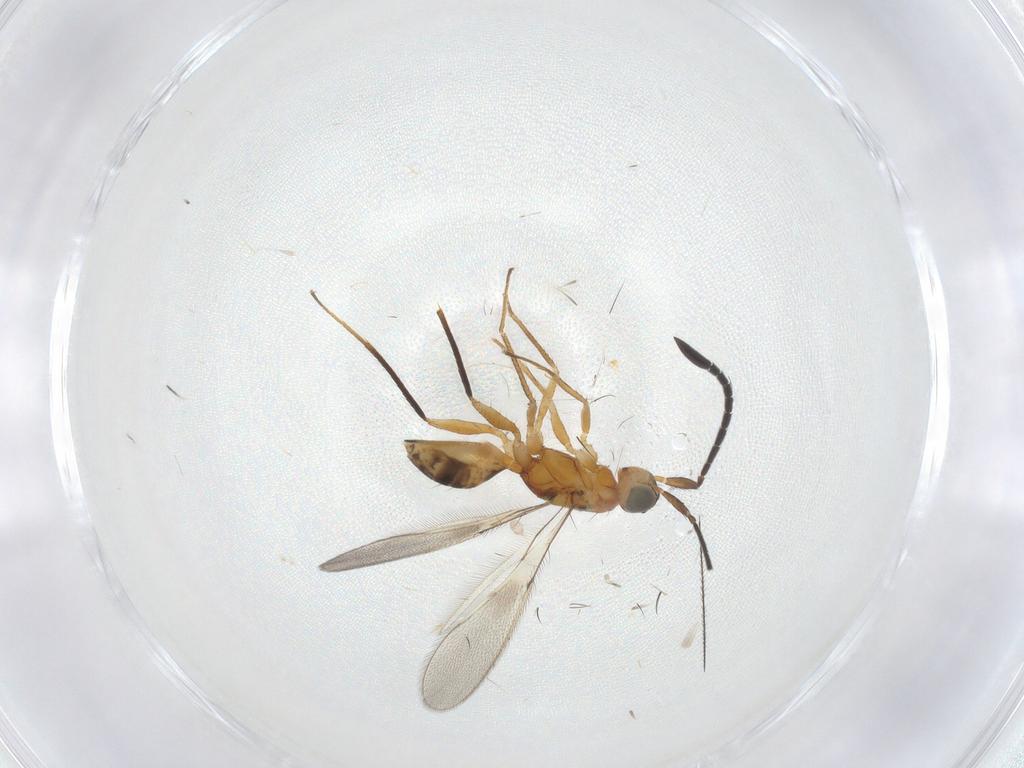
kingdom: Animalia
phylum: Arthropoda
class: Insecta
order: Hymenoptera
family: Mymaridae
